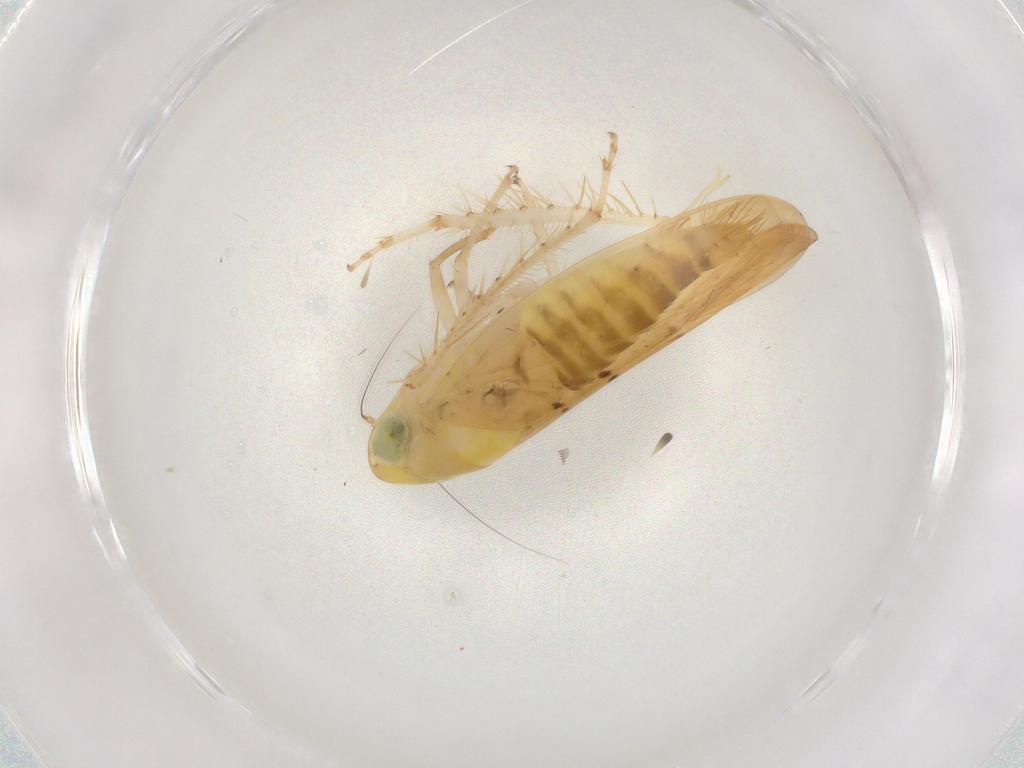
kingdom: Animalia
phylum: Arthropoda
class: Insecta
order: Hemiptera
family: Cicadellidae
